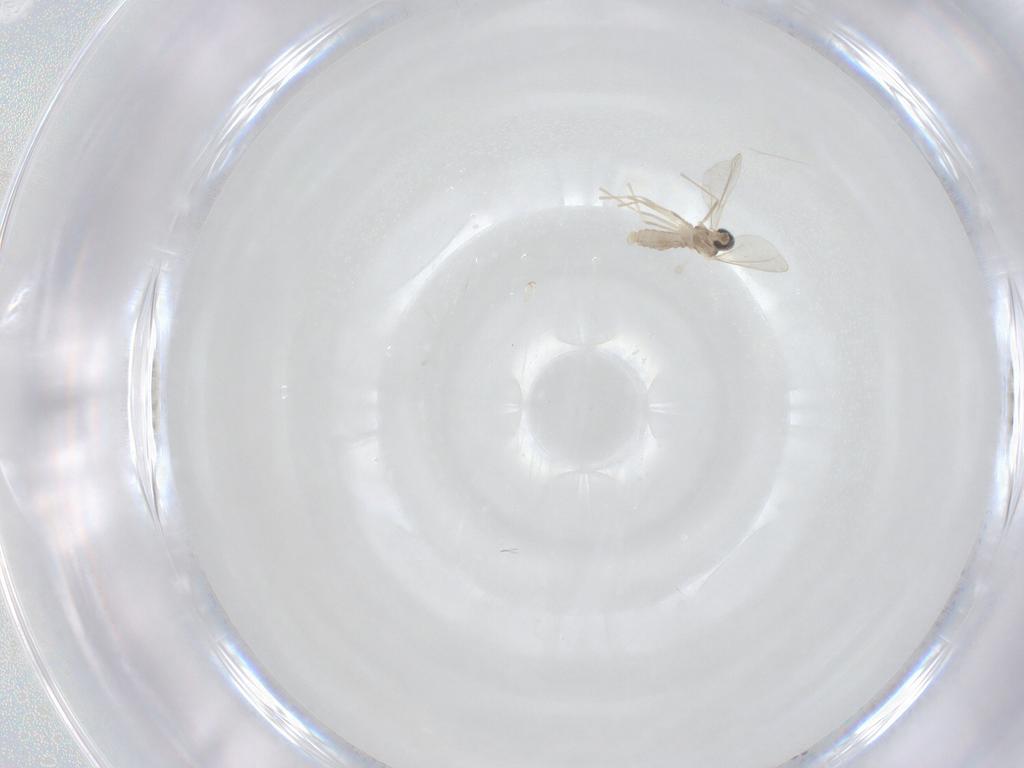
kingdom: Animalia
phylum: Arthropoda
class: Insecta
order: Diptera
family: Cecidomyiidae
